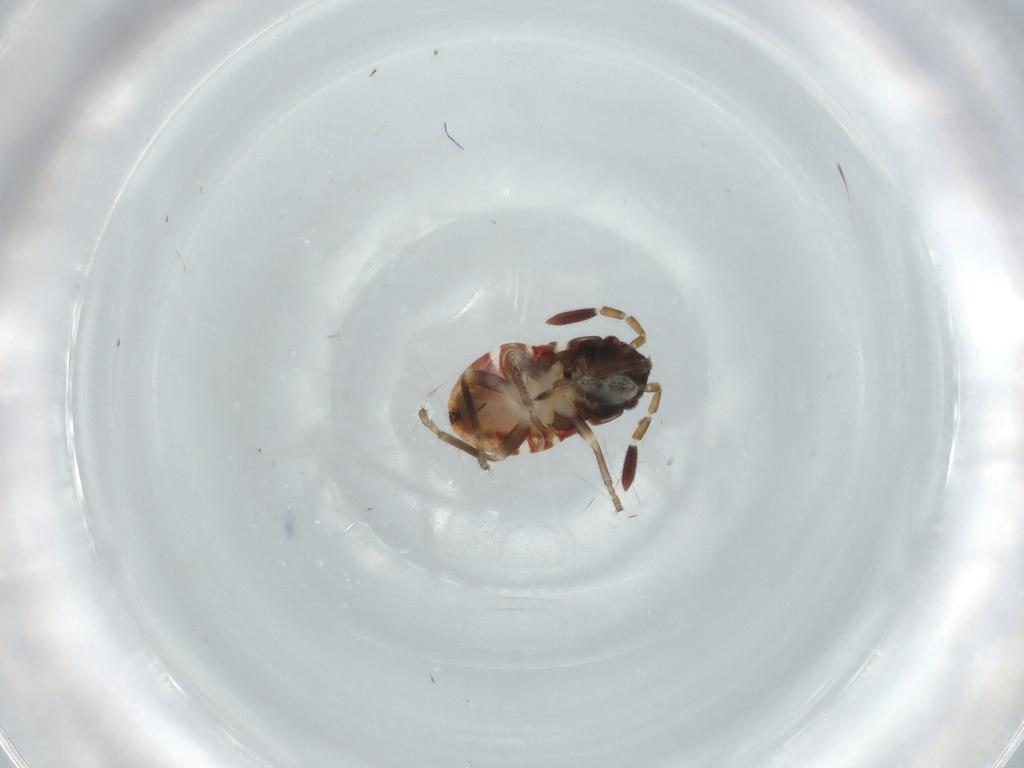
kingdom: Animalia
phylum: Arthropoda
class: Insecta
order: Hemiptera
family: Rhyparochromidae
